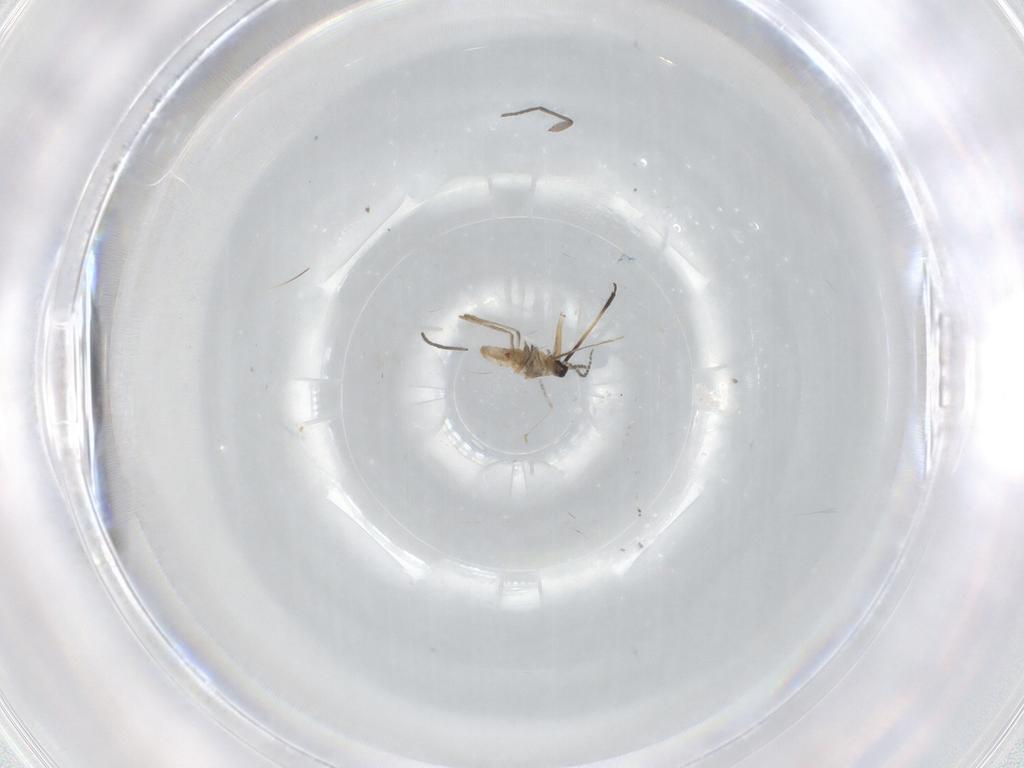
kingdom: Animalia
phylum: Arthropoda
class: Insecta
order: Diptera
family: Cecidomyiidae
